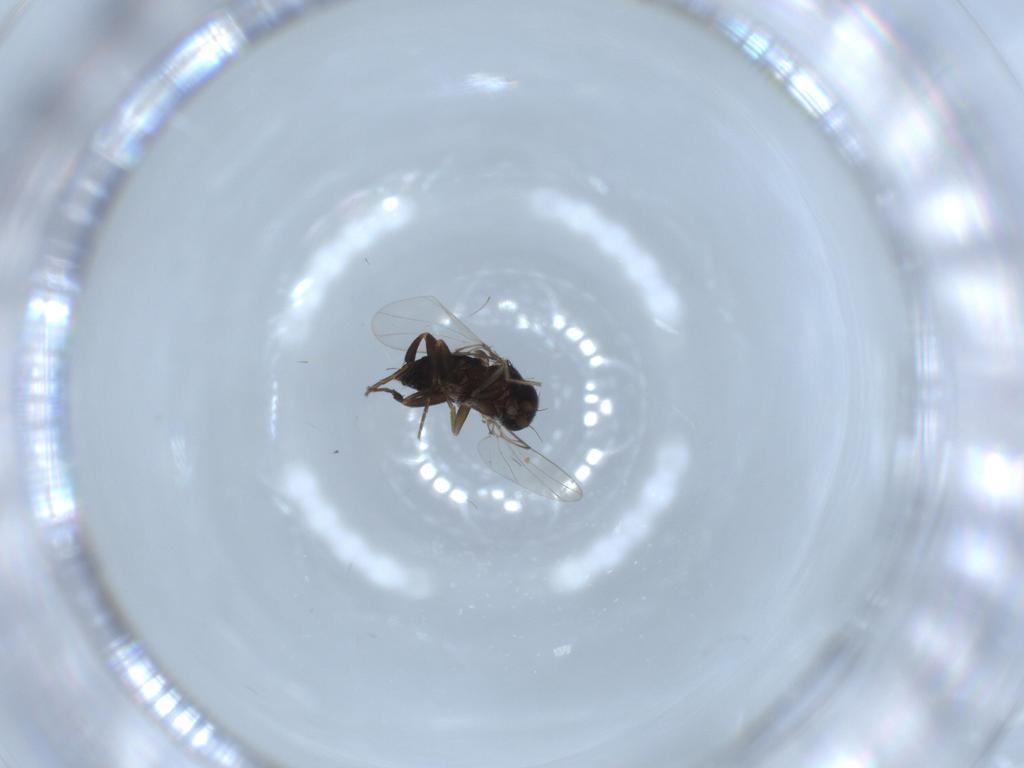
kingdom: Animalia
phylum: Arthropoda
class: Insecta
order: Diptera
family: Phoridae
